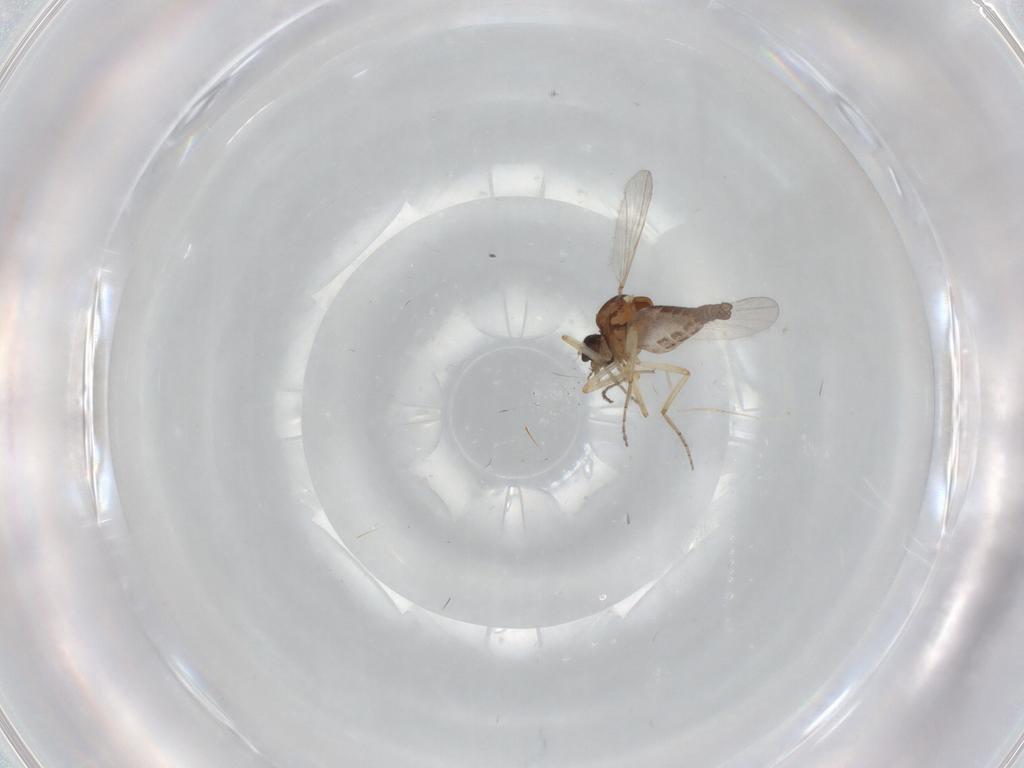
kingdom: Animalia
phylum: Arthropoda
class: Insecta
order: Diptera
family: Ceratopogonidae
